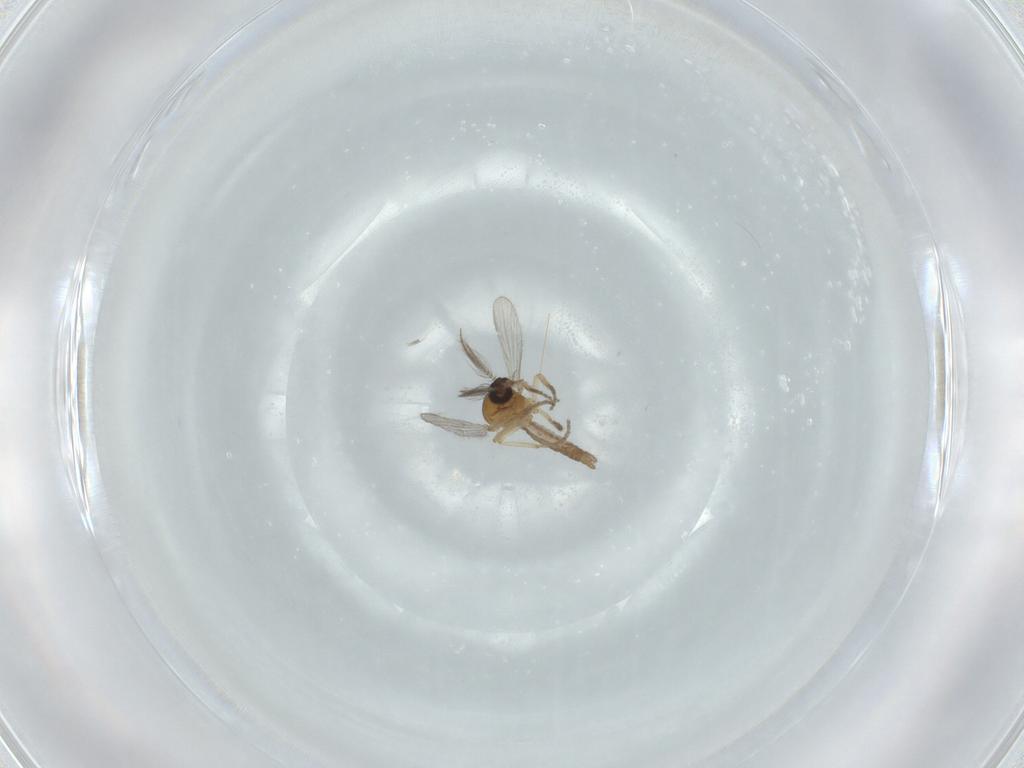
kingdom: Animalia
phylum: Arthropoda
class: Insecta
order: Diptera
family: Ceratopogonidae
